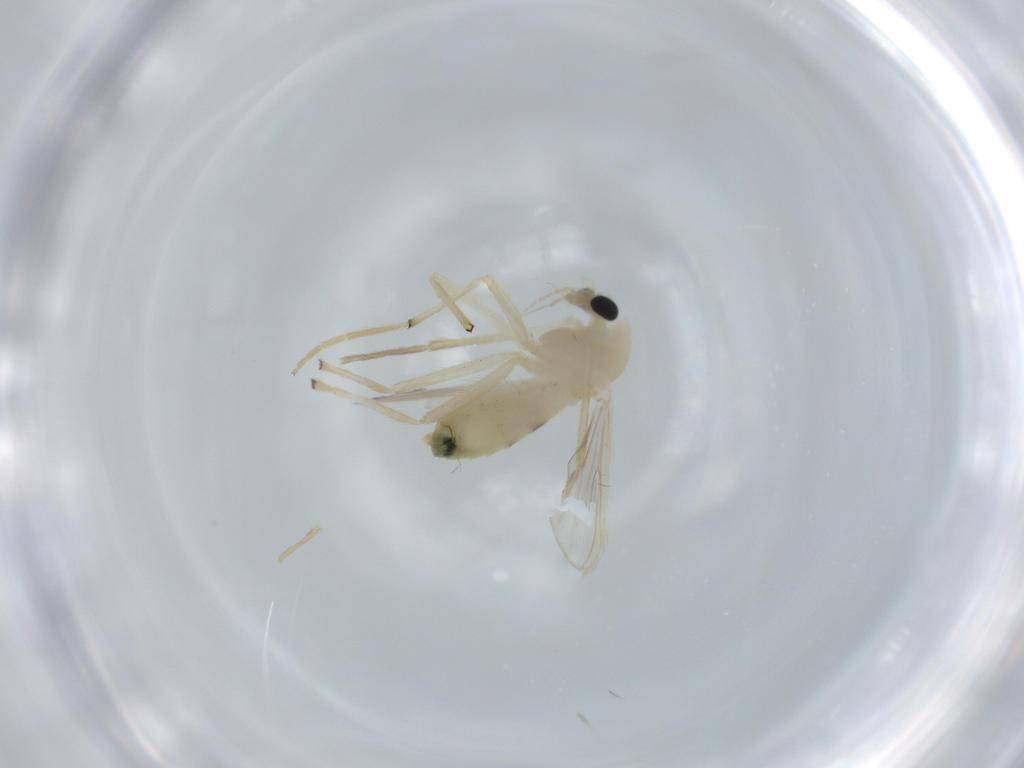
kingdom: Animalia
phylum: Arthropoda
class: Insecta
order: Diptera
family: Chironomidae
